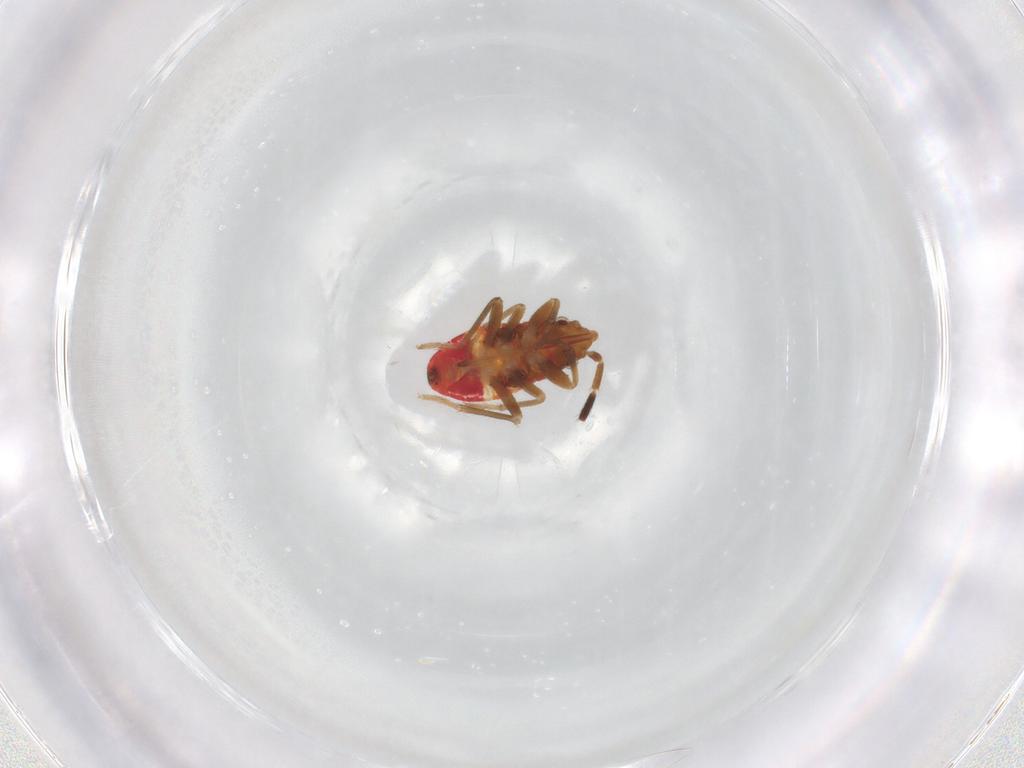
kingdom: Animalia
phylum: Arthropoda
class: Insecta
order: Hemiptera
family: Rhyparochromidae
